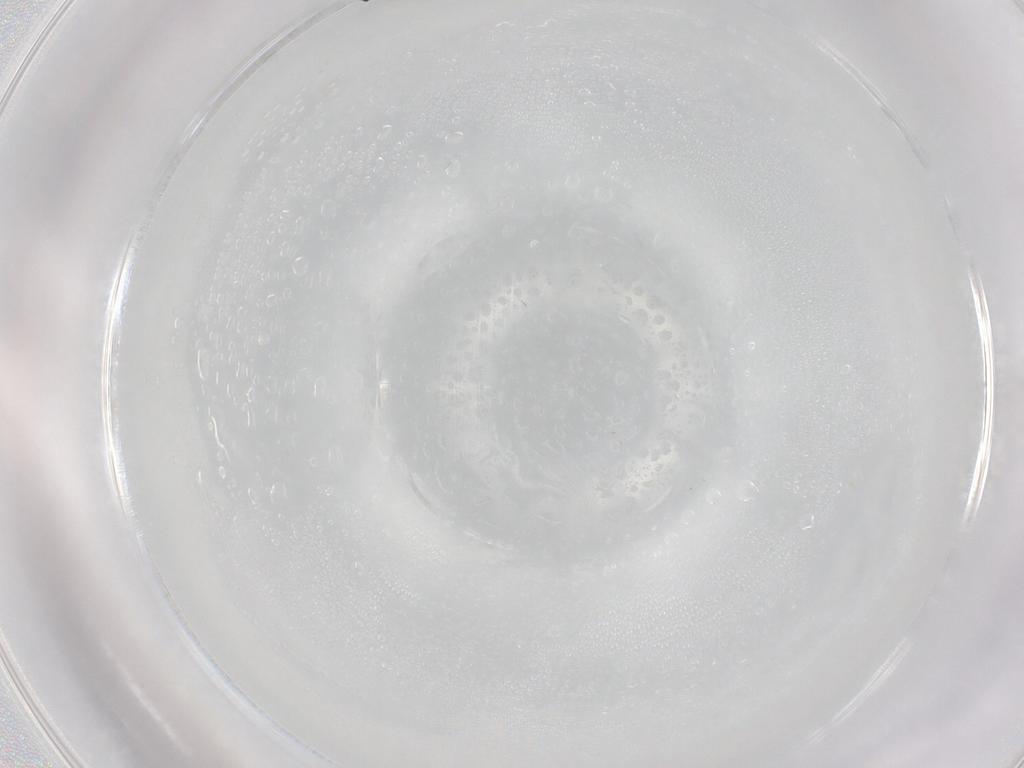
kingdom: Animalia
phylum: Arthropoda
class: Insecta
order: Diptera
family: Cecidomyiidae
